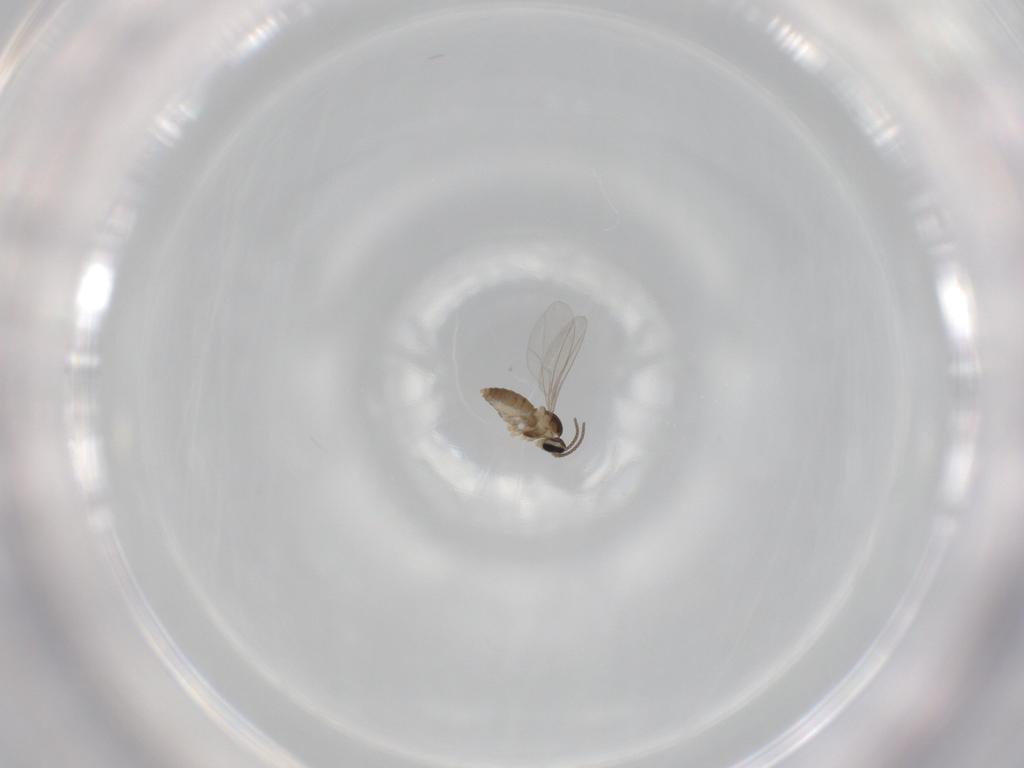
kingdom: Animalia
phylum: Arthropoda
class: Insecta
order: Diptera
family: Cecidomyiidae
